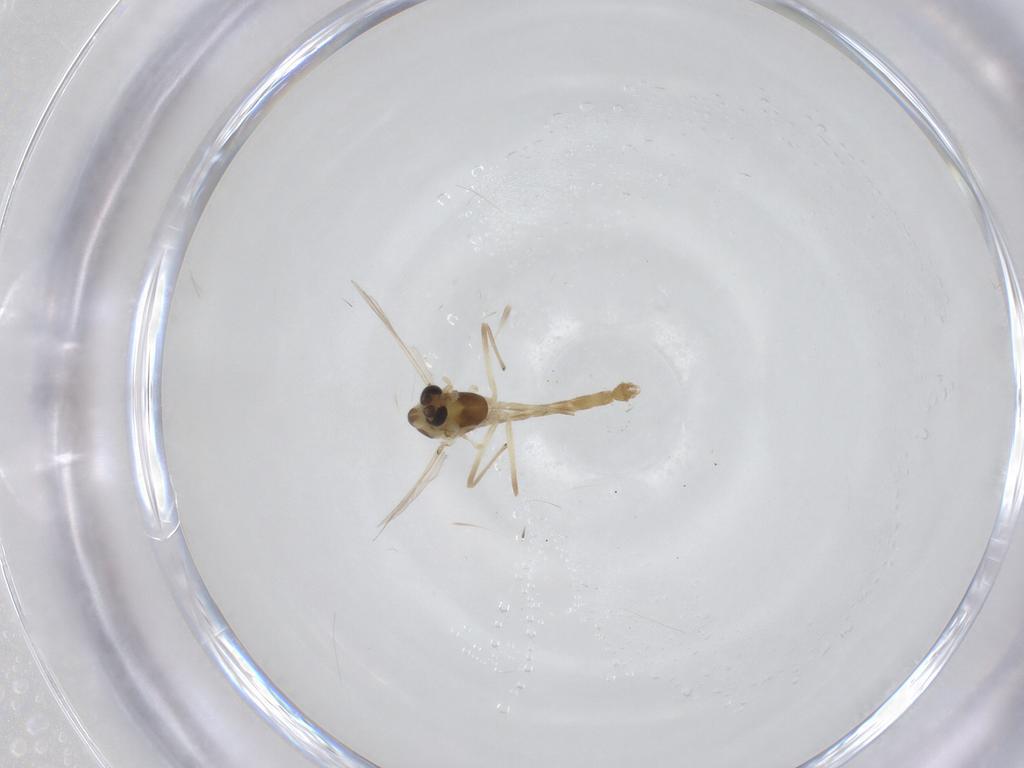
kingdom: Animalia
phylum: Arthropoda
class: Insecta
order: Diptera
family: Chironomidae
